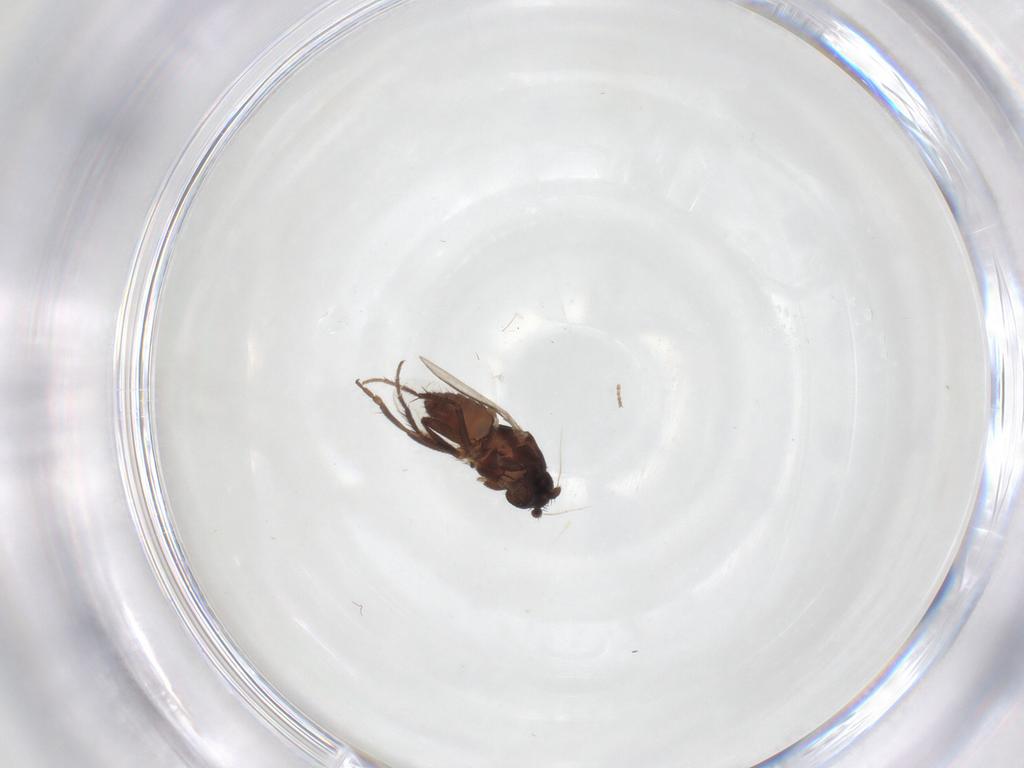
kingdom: Animalia
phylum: Arthropoda
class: Insecta
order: Diptera
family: Sphaeroceridae
